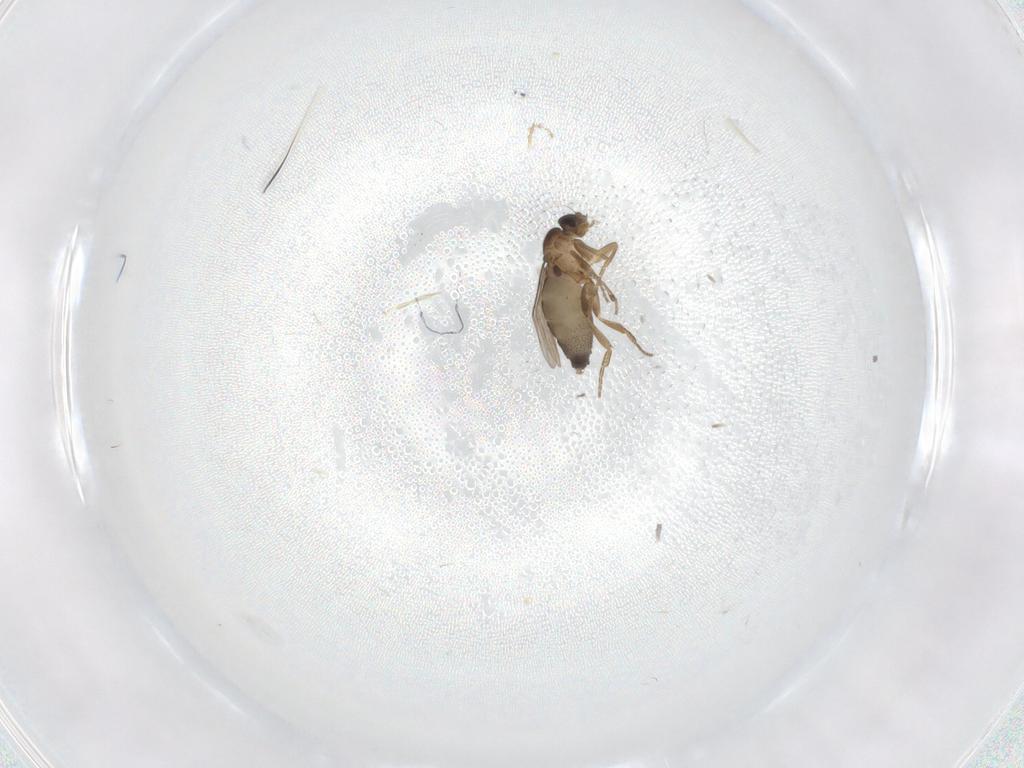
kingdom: Animalia
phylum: Arthropoda
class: Insecta
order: Diptera
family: Phoridae
